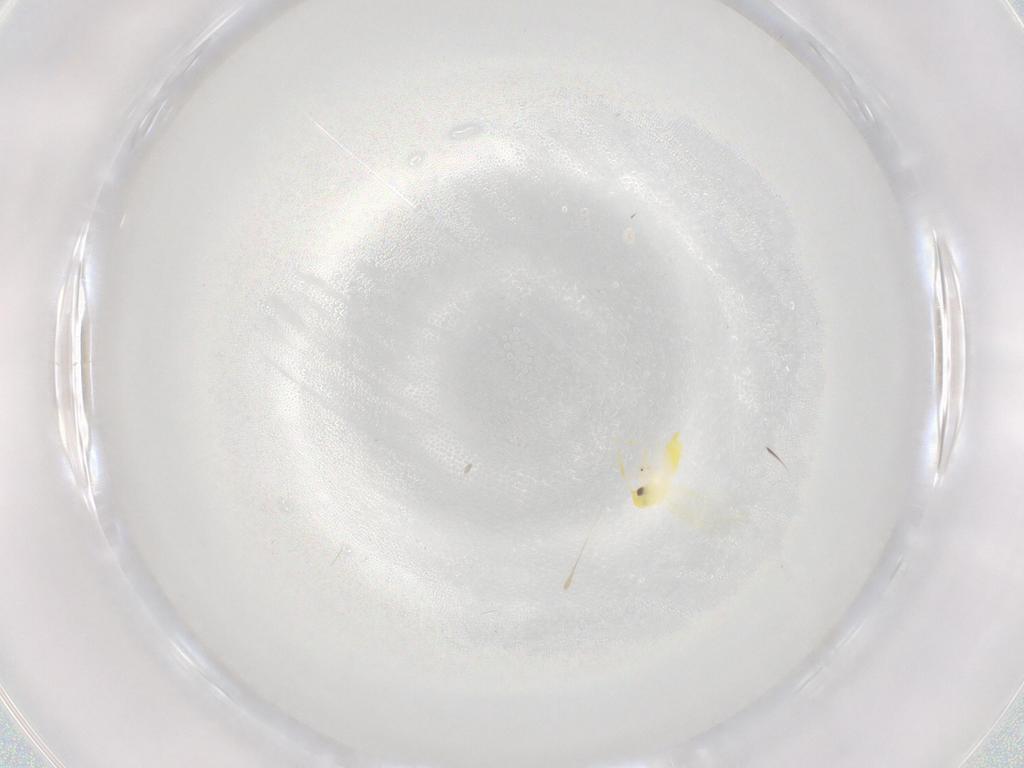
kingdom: Animalia
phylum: Arthropoda
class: Insecta
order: Hemiptera
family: Aleyrodidae
